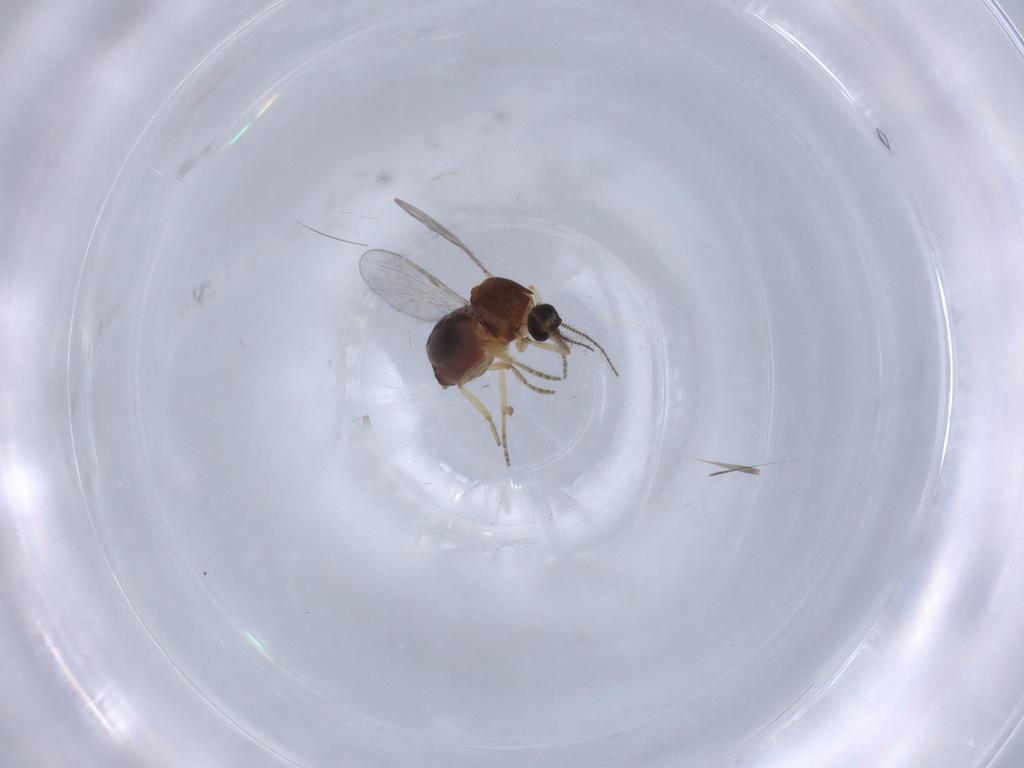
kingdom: Animalia
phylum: Arthropoda
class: Insecta
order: Diptera
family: Ceratopogonidae
